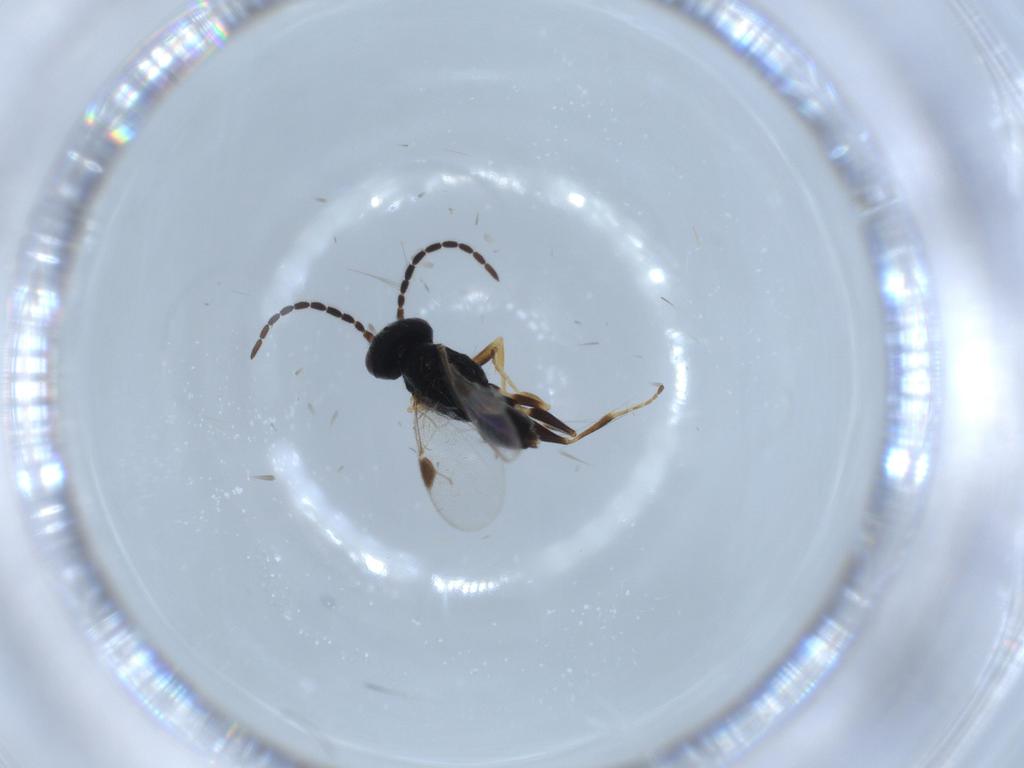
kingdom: Animalia
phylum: Arthropoda
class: Insecta
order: Hymenoptera
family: Dryinidae
